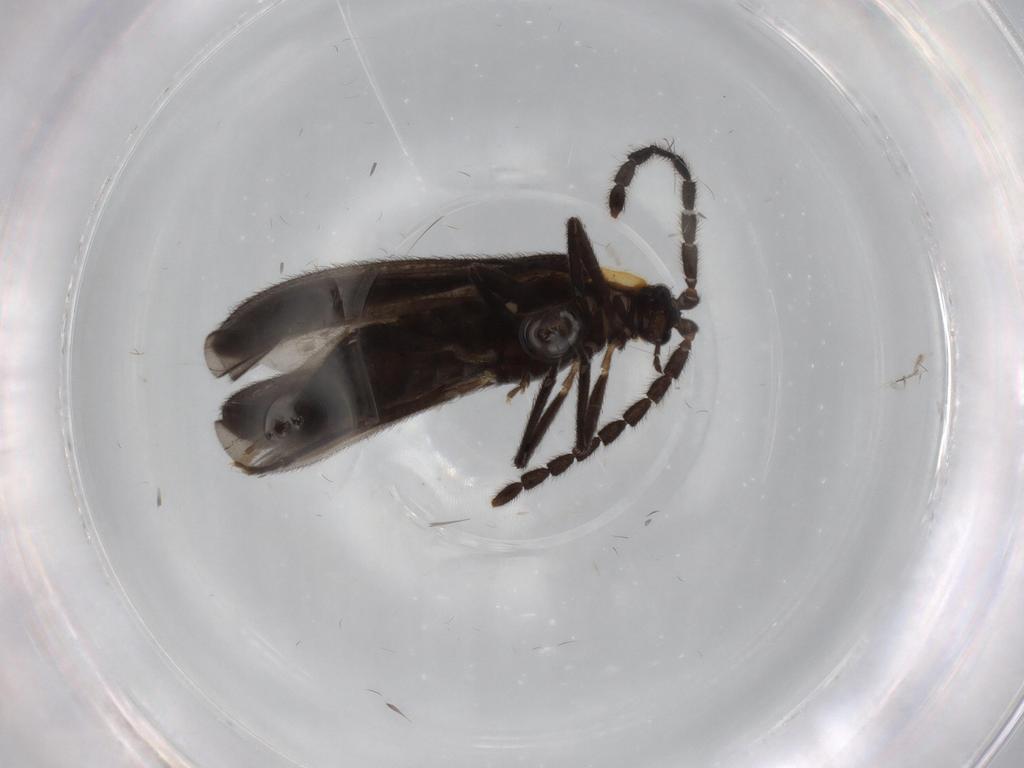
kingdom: Animalia
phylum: Arthropoda
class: Insecta
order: Coleoptera
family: Lycidae
